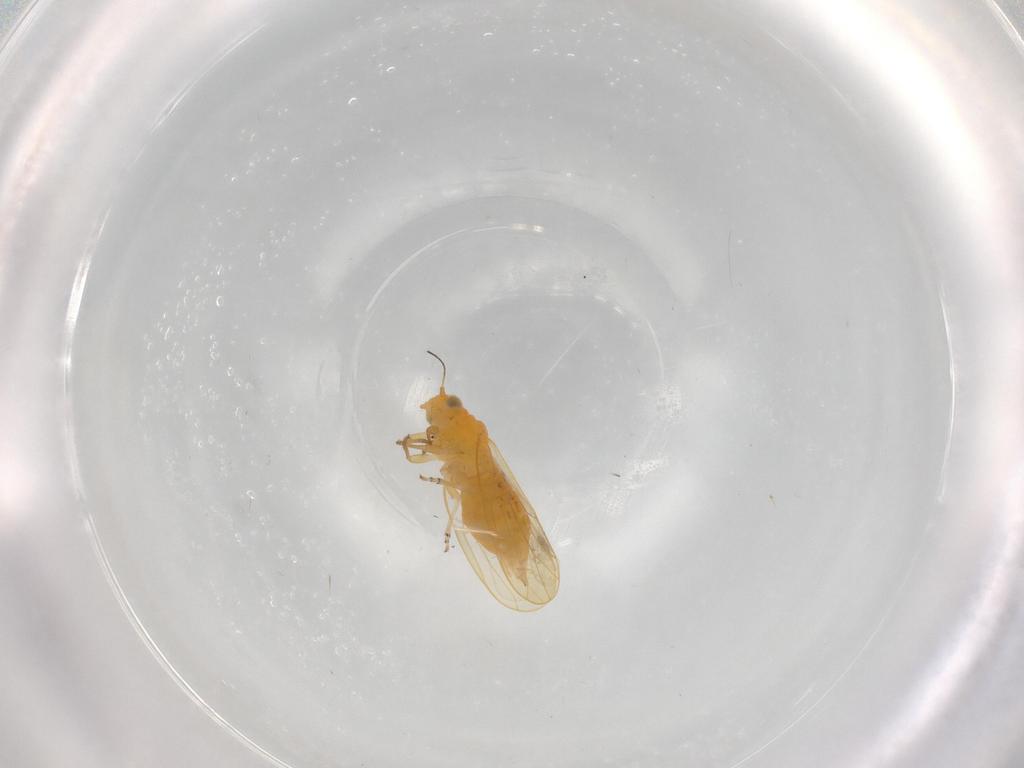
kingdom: Animalia
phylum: Arthropoda
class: Insecta
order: Hemiptera
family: Psyllidae
